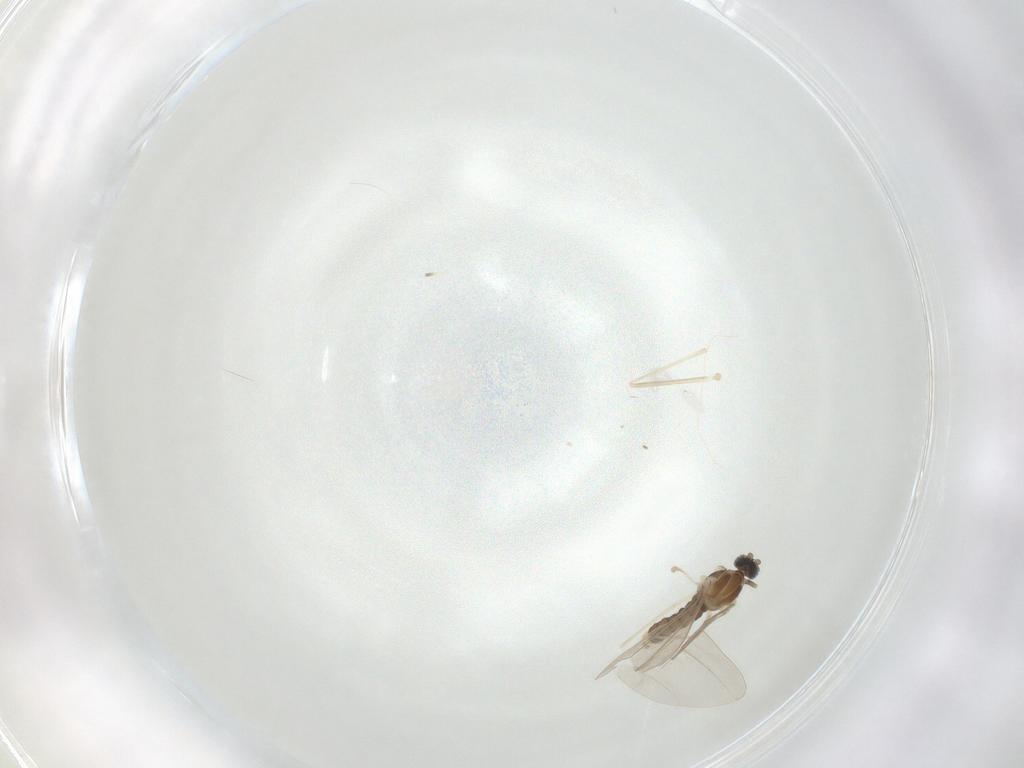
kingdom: Animalia
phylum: Arthropoda
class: Insecta
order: Diptera
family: Cecidomyiidae
